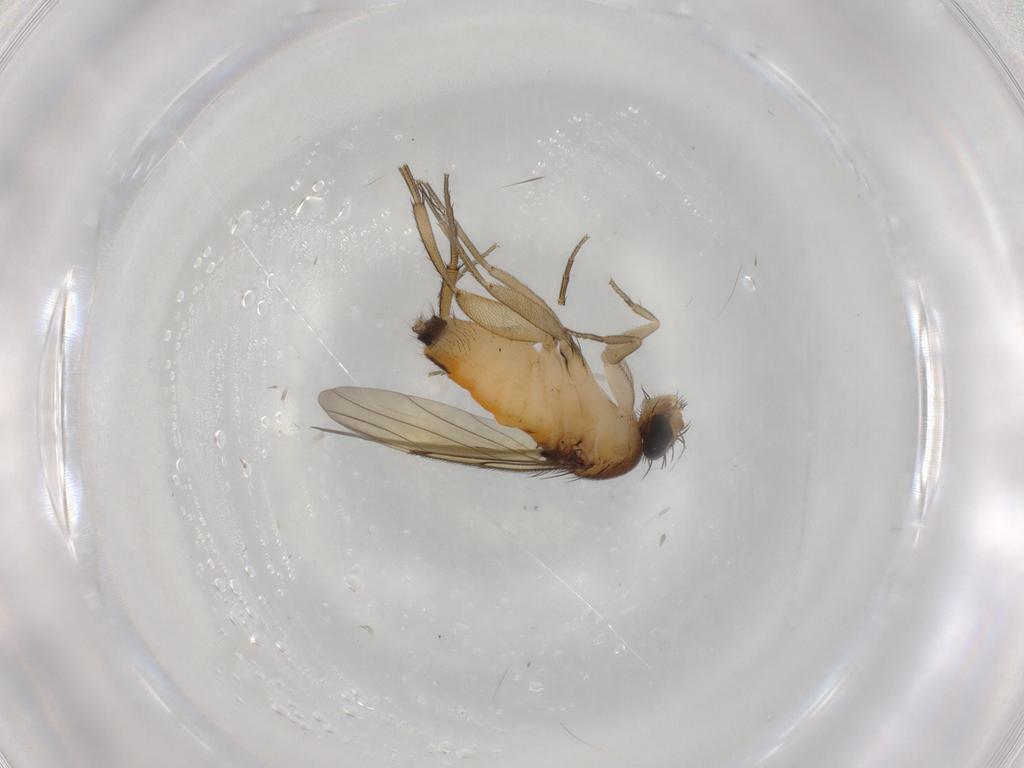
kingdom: Animalia
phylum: Arthropoda
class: Insecta
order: Diptera
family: Phoridae
